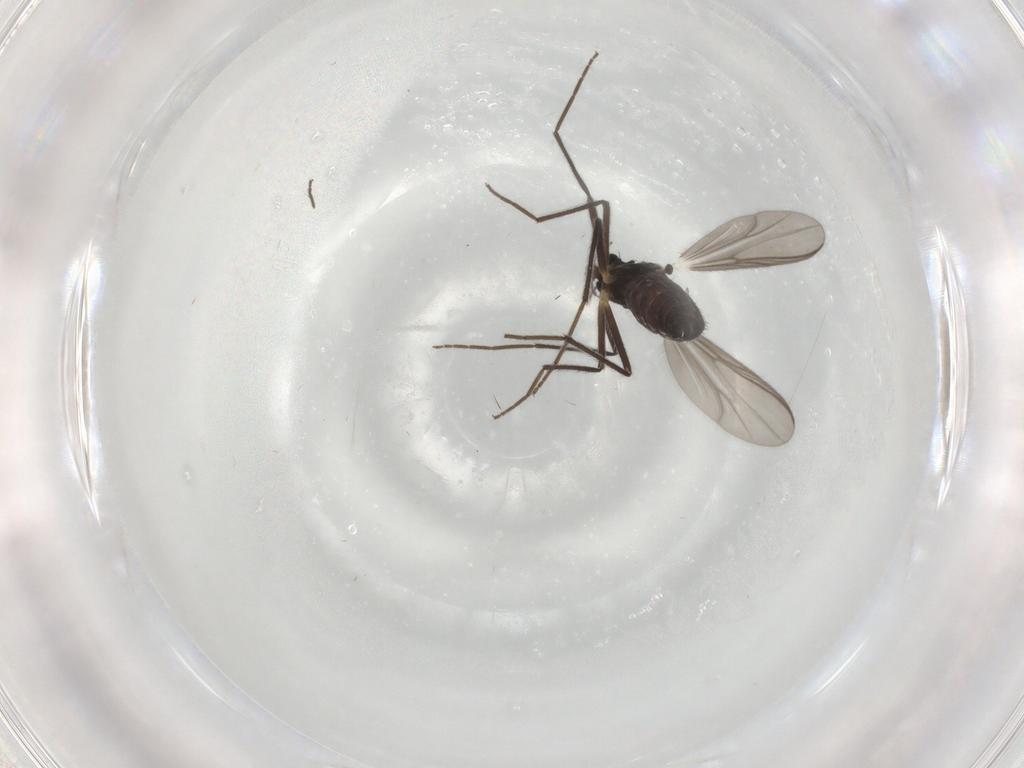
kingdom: Animalia
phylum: Arthropoda
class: Insecta
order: Diptera
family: Chironomidae
